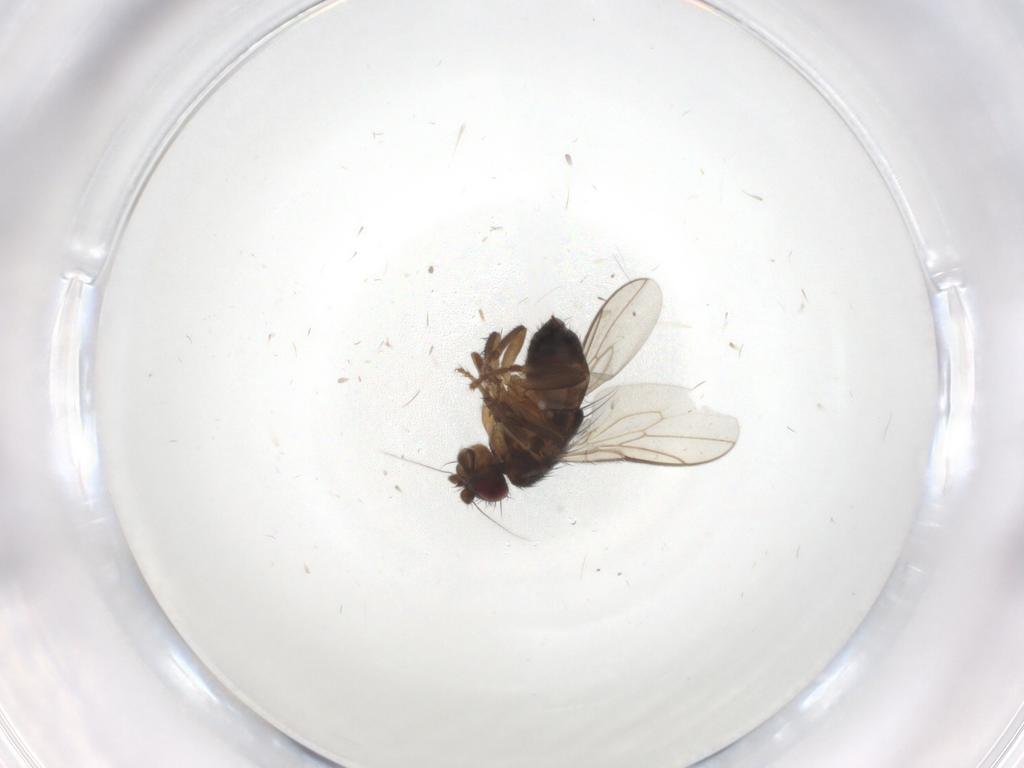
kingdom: Animalia
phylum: Arthropoda
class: Insecta
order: Diptera
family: Sphaeroceridae
